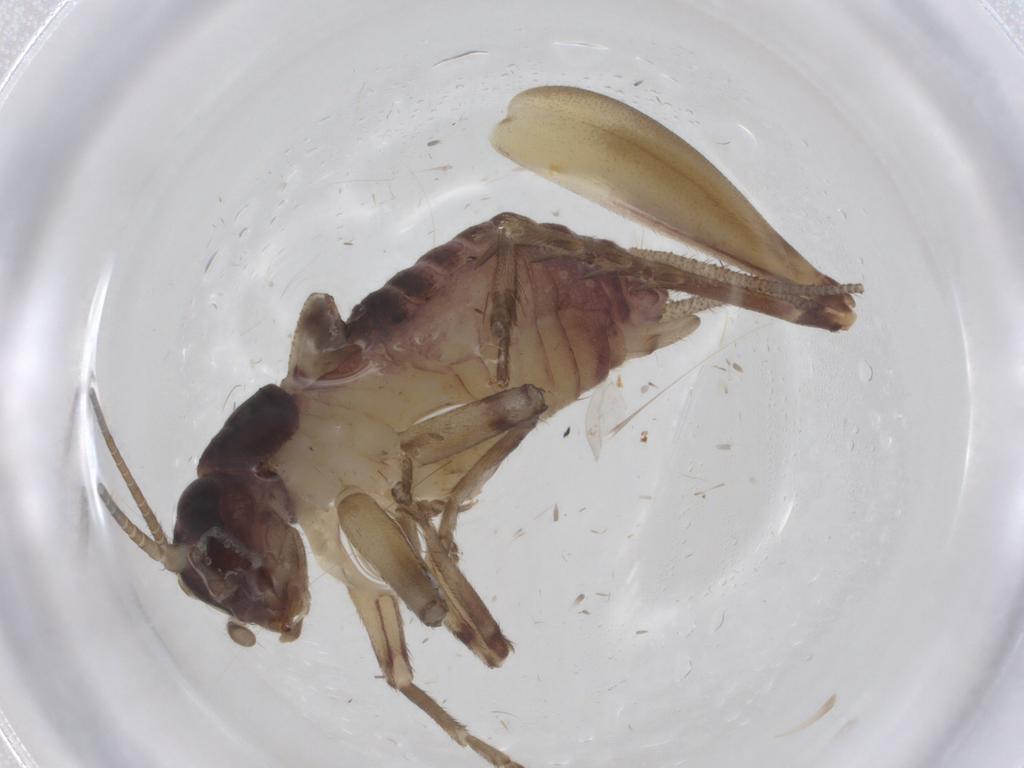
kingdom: Animalia
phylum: Arthropoda
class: Insecta
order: Orthoptera
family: Trigonidiidae
